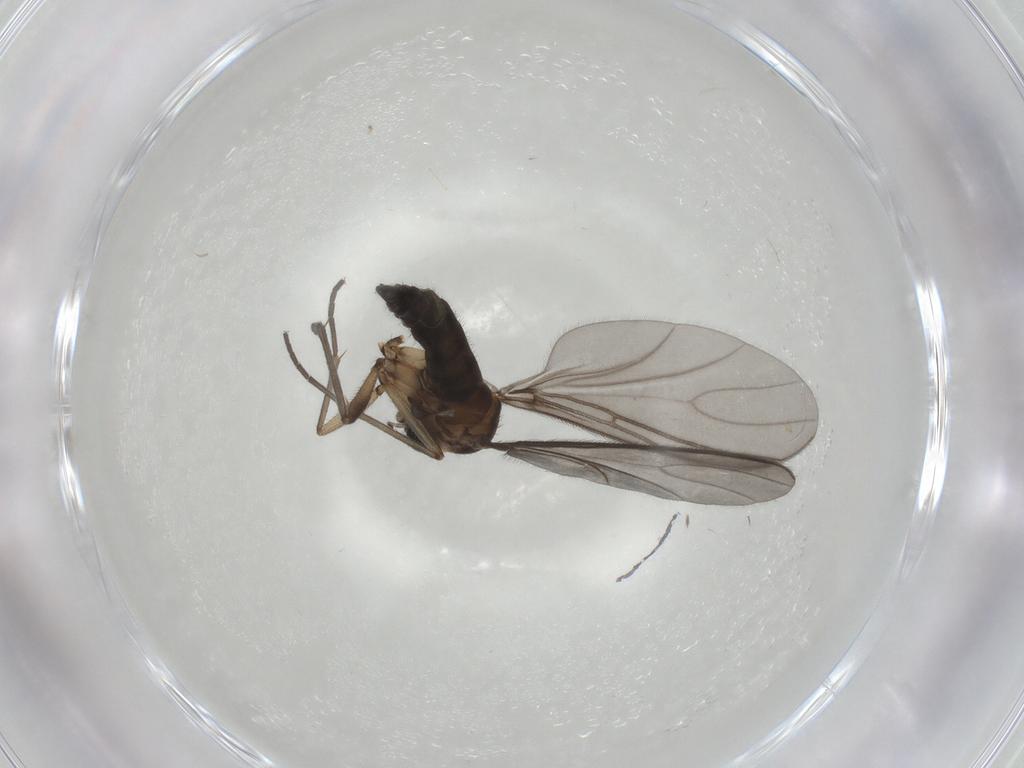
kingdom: Animalia
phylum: Arthropoda
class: Insecta
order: Diptera
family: Sciaridae
